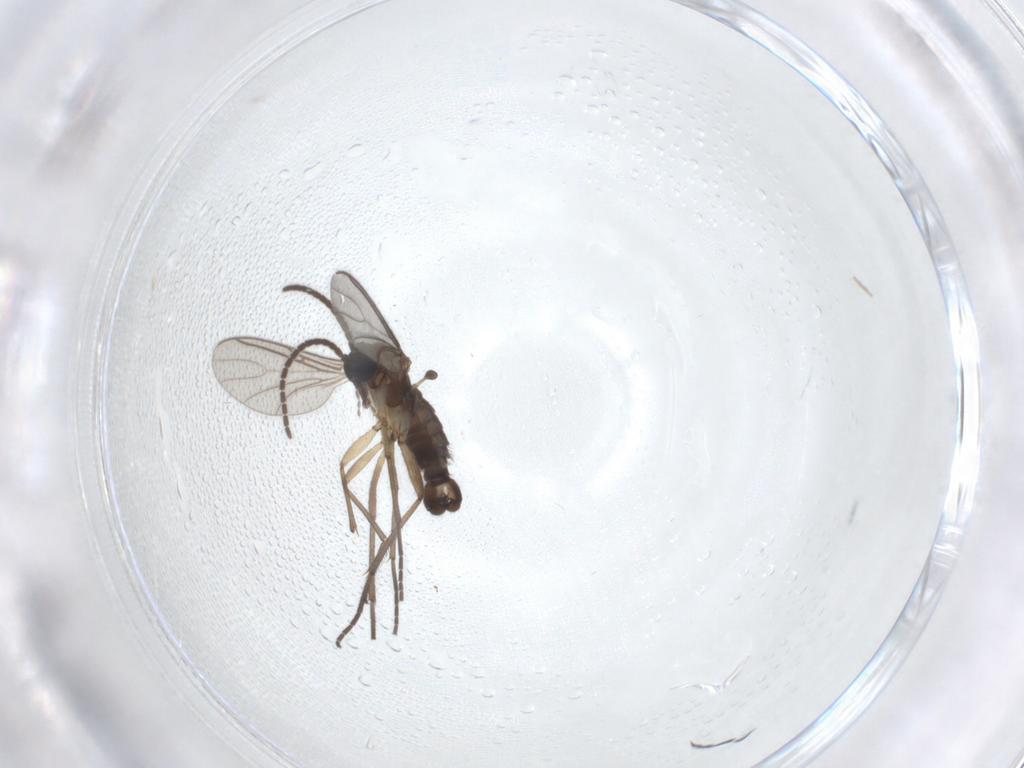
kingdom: Animalia
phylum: Arthropoda
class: Insecta
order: Diptera
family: Sciaridae
